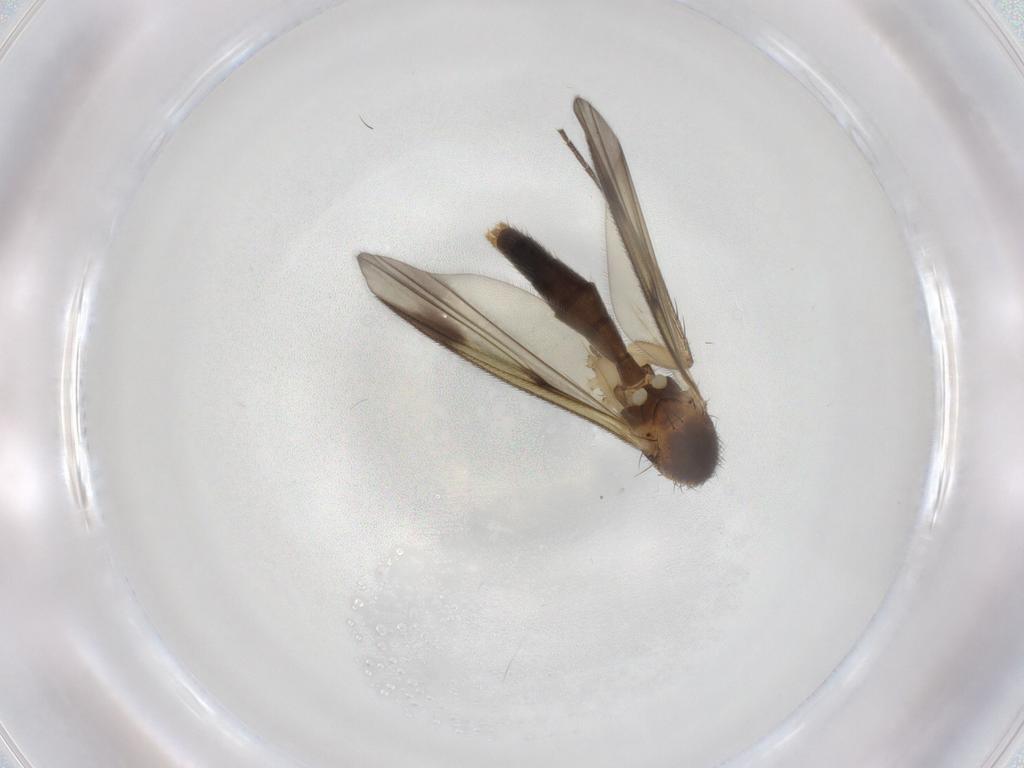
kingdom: Animalia
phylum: Arthropoda
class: Insecta
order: Diptera
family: Mycetophilidae
